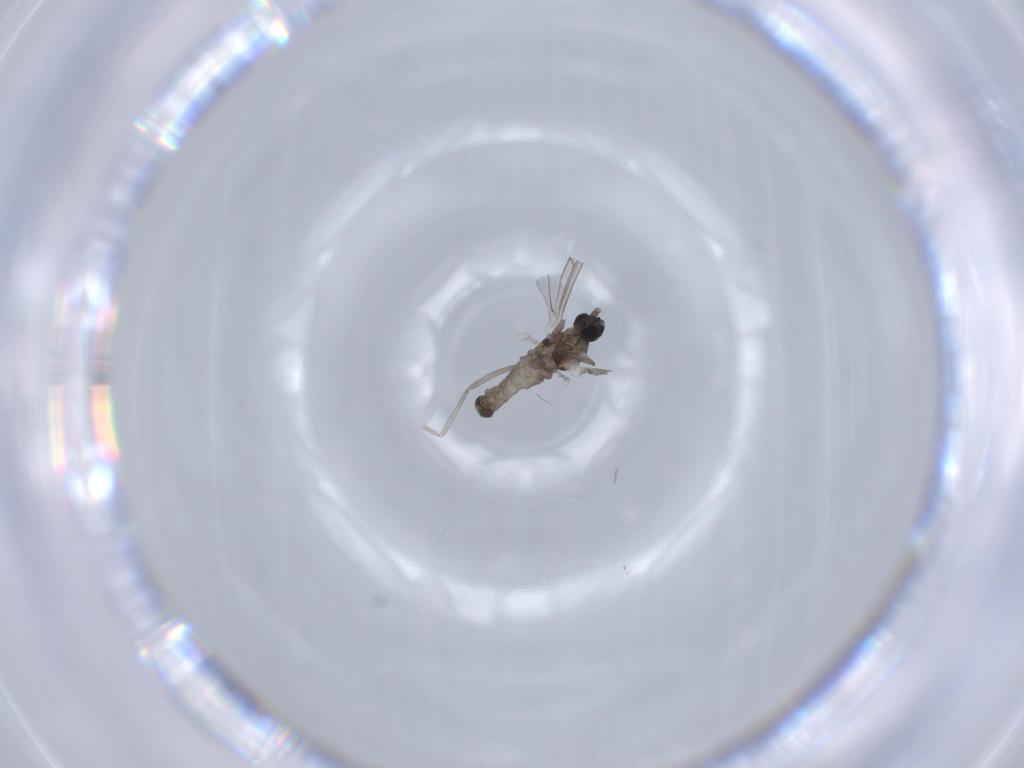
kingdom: Animalia
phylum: Arthropoda
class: Insecta
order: Diptera
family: Cecidomyiidae
